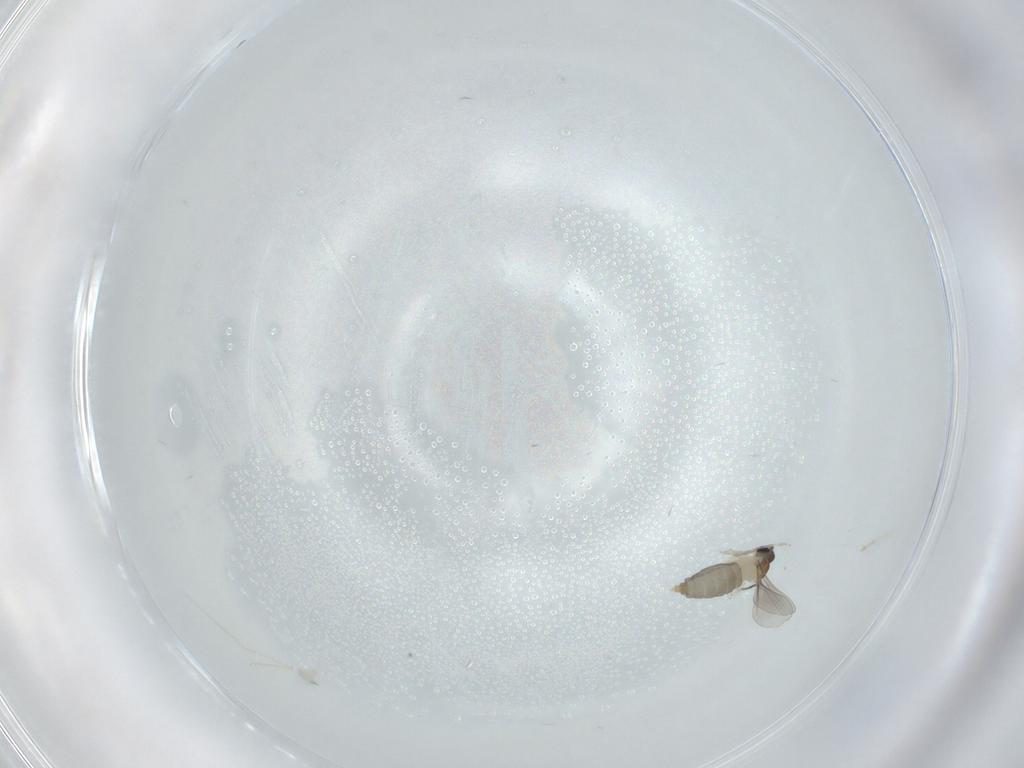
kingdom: Animalia
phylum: Arthropoda
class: Insecta
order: Diptera
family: Cecidomyiidae
